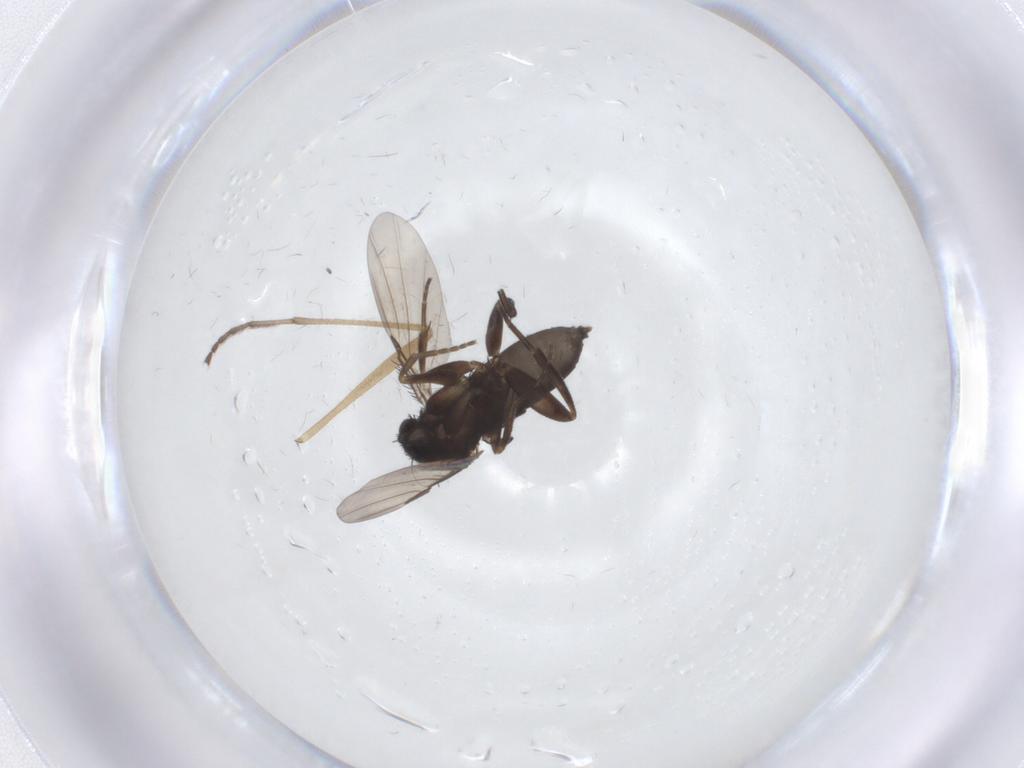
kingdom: Animalia
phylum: Arthropoda
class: Insecta
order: Diptera
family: Phoridae
